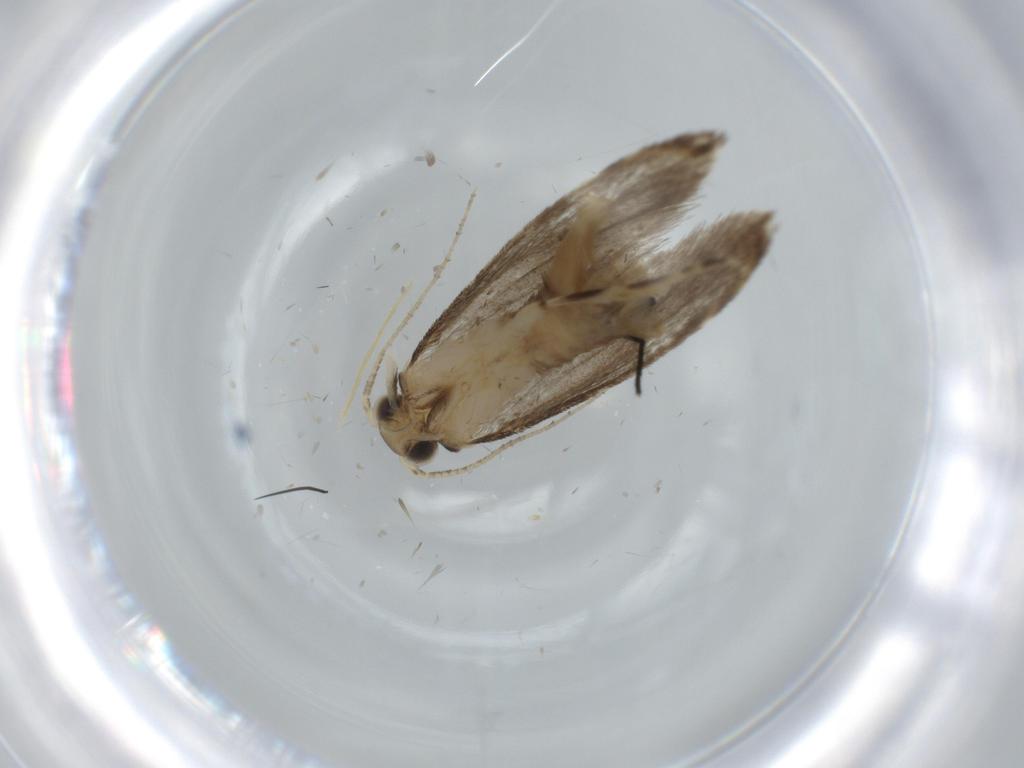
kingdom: Animalia
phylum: Arthropoda
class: Insecta
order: Lepidoptera
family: Tineidae
